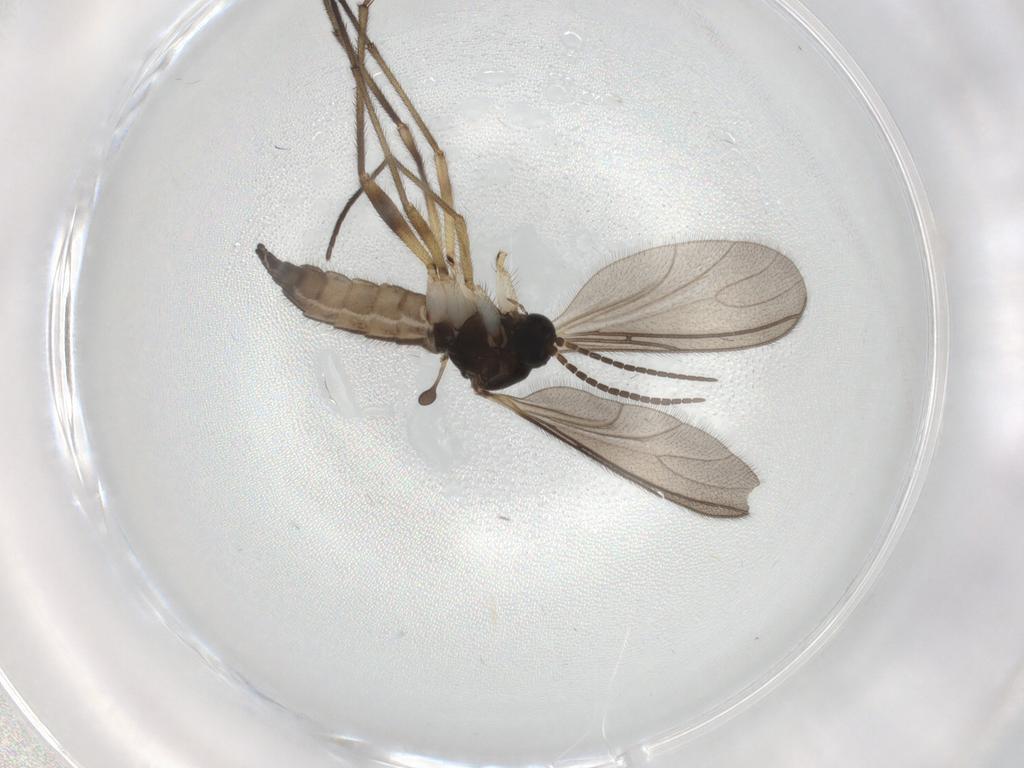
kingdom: Animalia
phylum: Arthropoda
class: Insecta
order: Diptera
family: Sciaridae
